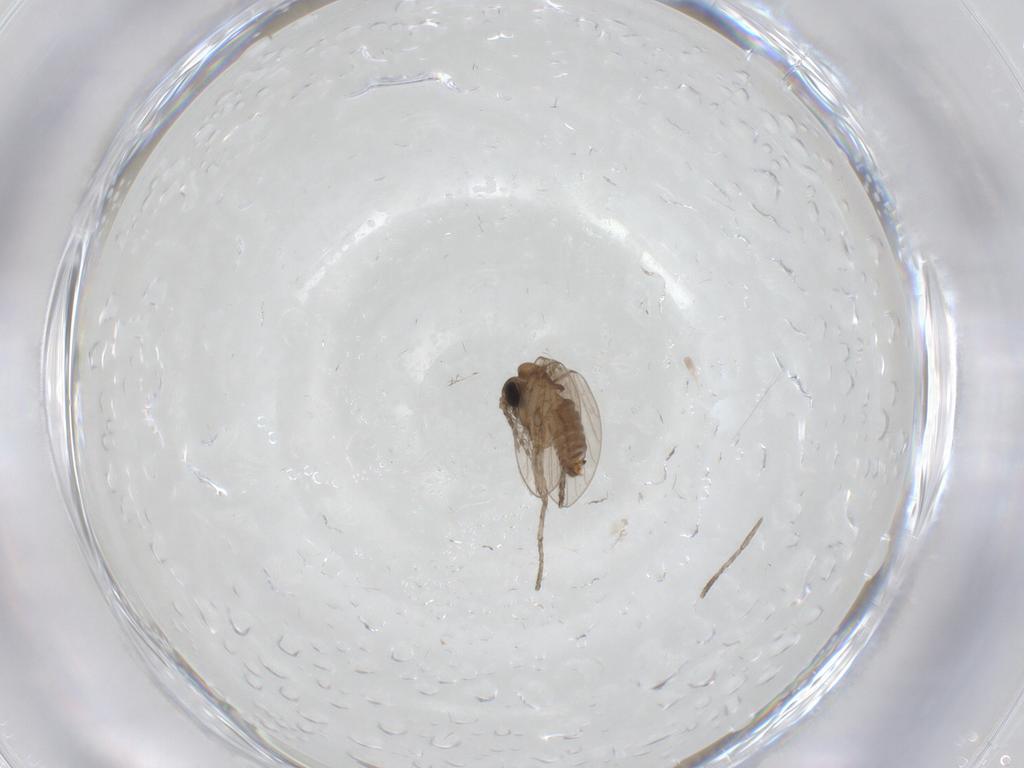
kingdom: Animalia
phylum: Arthropoda
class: Insecta
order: Diptera
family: Psychodidae
